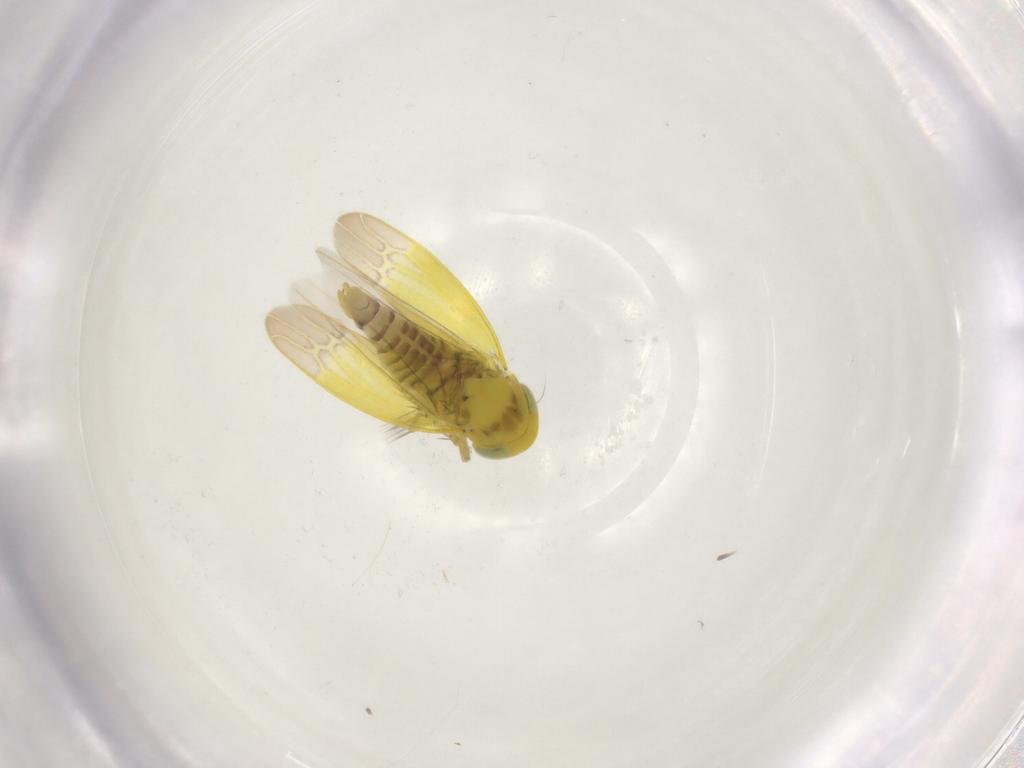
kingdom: Animalia
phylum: Arthropoda
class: Insecta
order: Hemiptera
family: Cicadellidae
